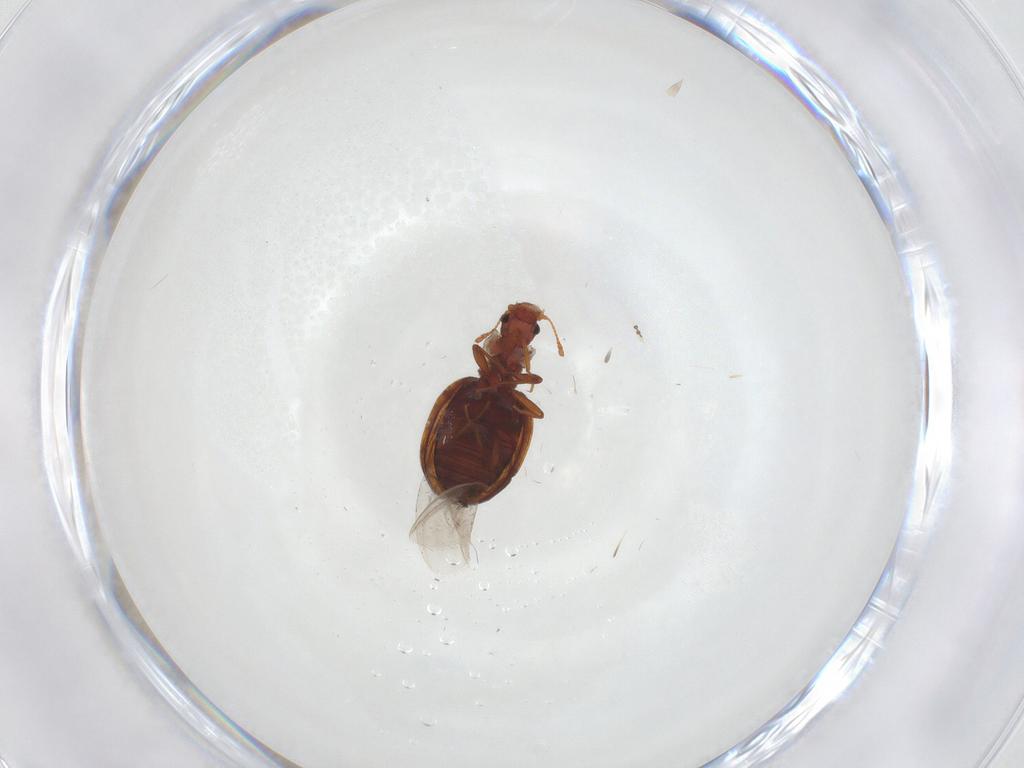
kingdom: Animalia
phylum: Arthropoda
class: Insecta
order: Coleoptera
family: Latridiidae
